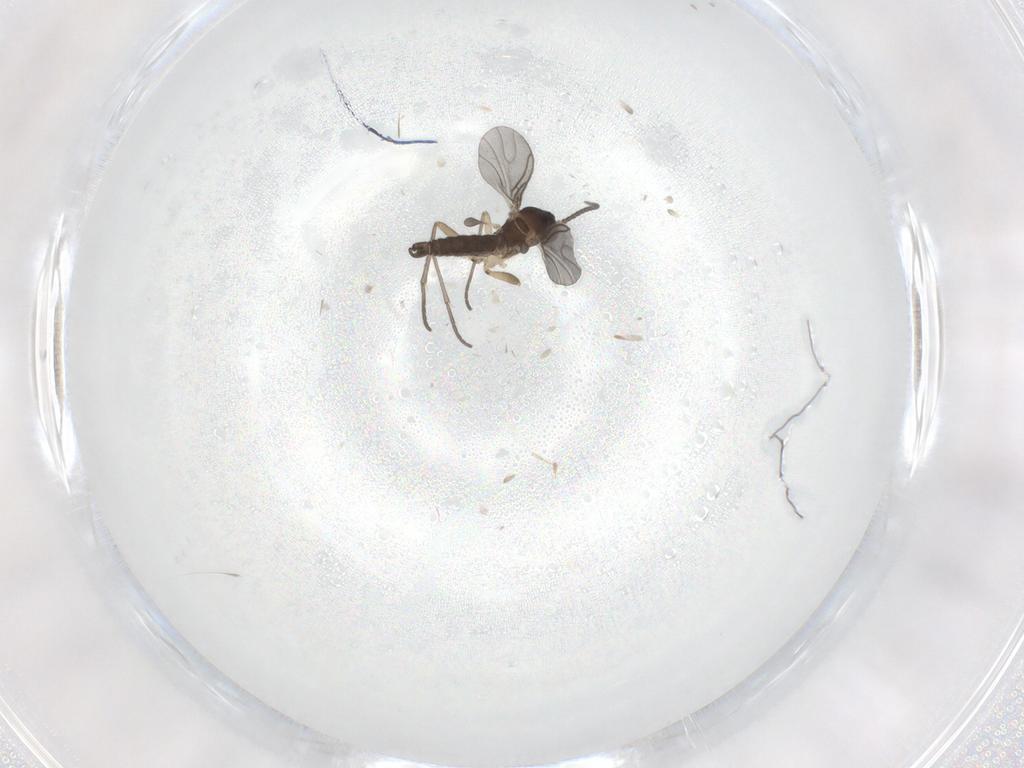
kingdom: Animalia
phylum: Arthropoda
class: Insecta
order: Diptera
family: Sciaridae
